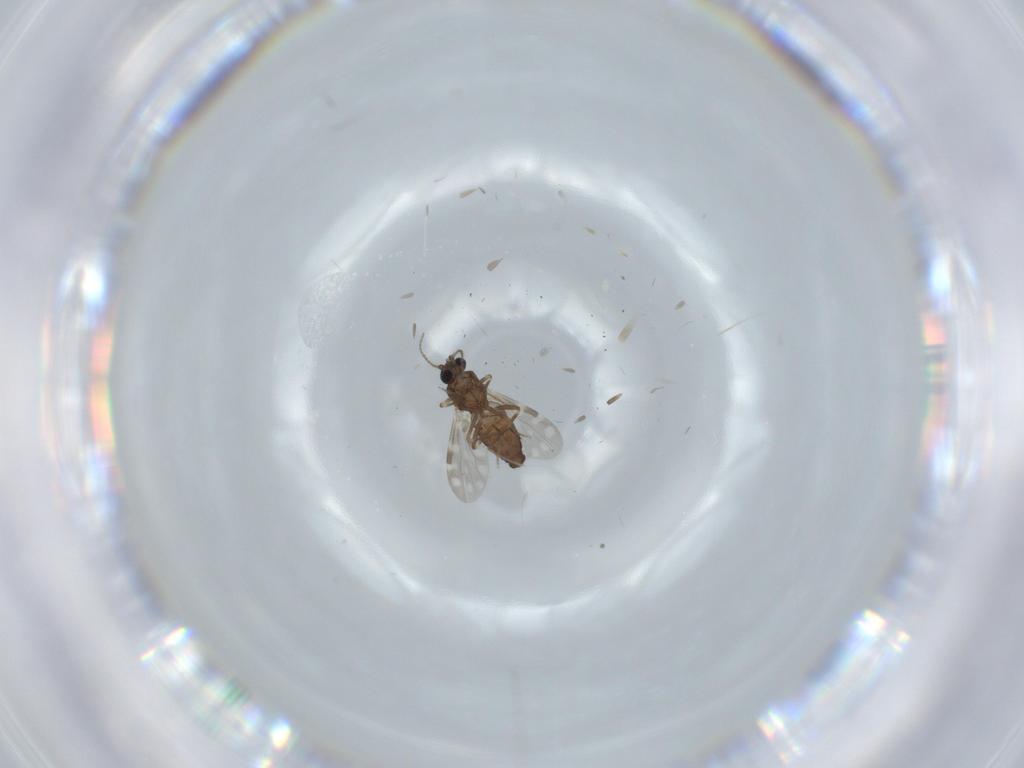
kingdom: Animalia
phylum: Arthropoda
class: Insecta
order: Diptera
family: Ceratopogonidae
